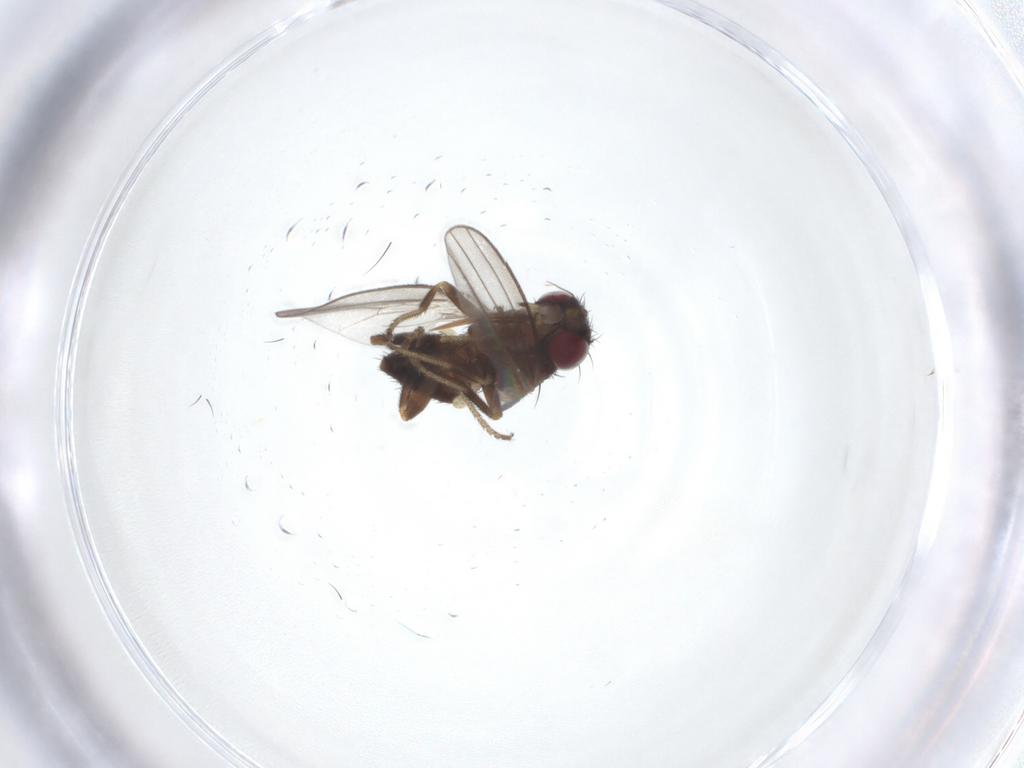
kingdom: Animalia
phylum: Arthropoda
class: Insecta
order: Diptera
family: Milichiidae
